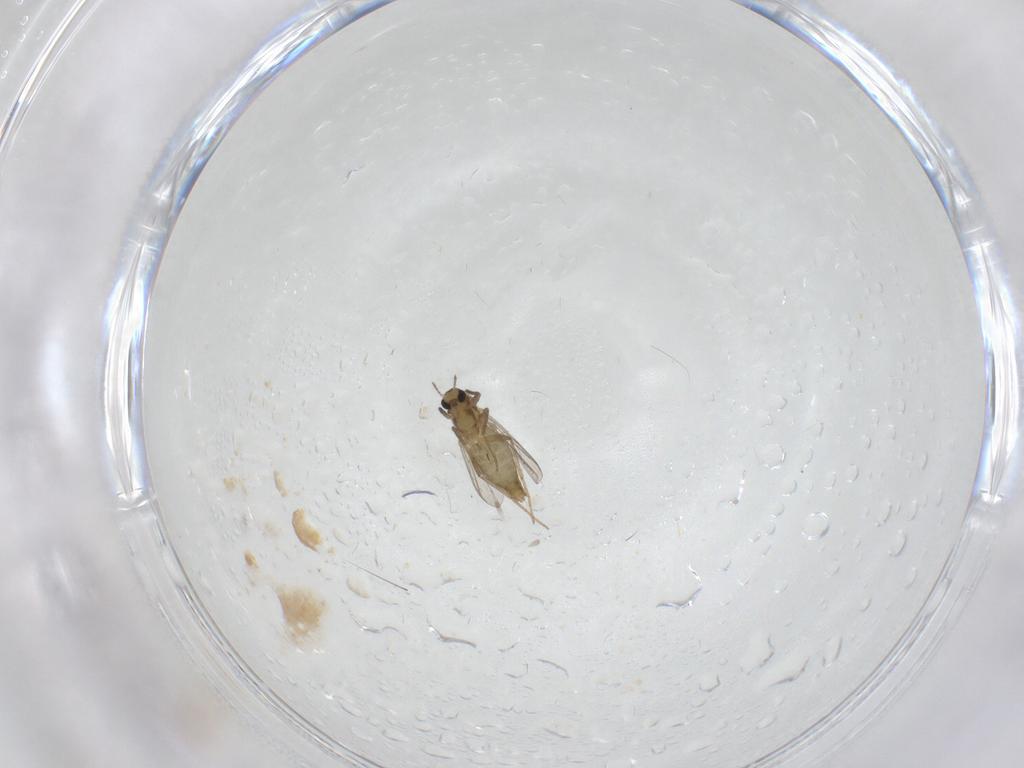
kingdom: Animalia
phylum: Arthropoda
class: Insecta
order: Diptera
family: Chironomidae
